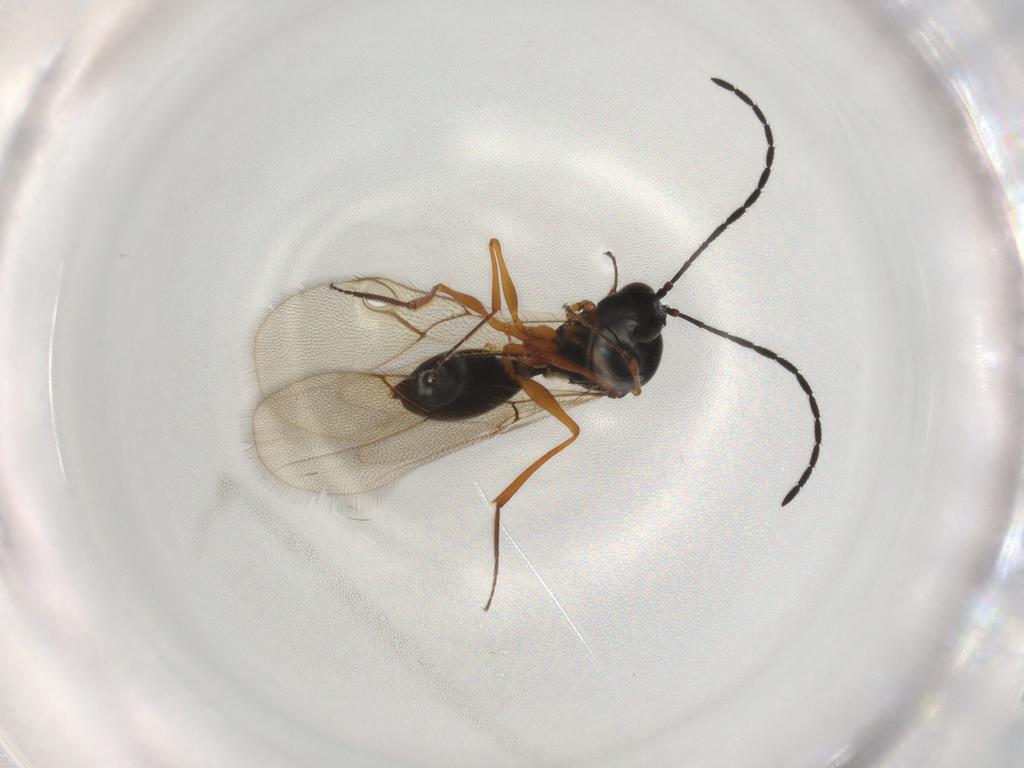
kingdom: Animalia
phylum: Arthropoda
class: Insecta
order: Hymenoptera
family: Figitidae
